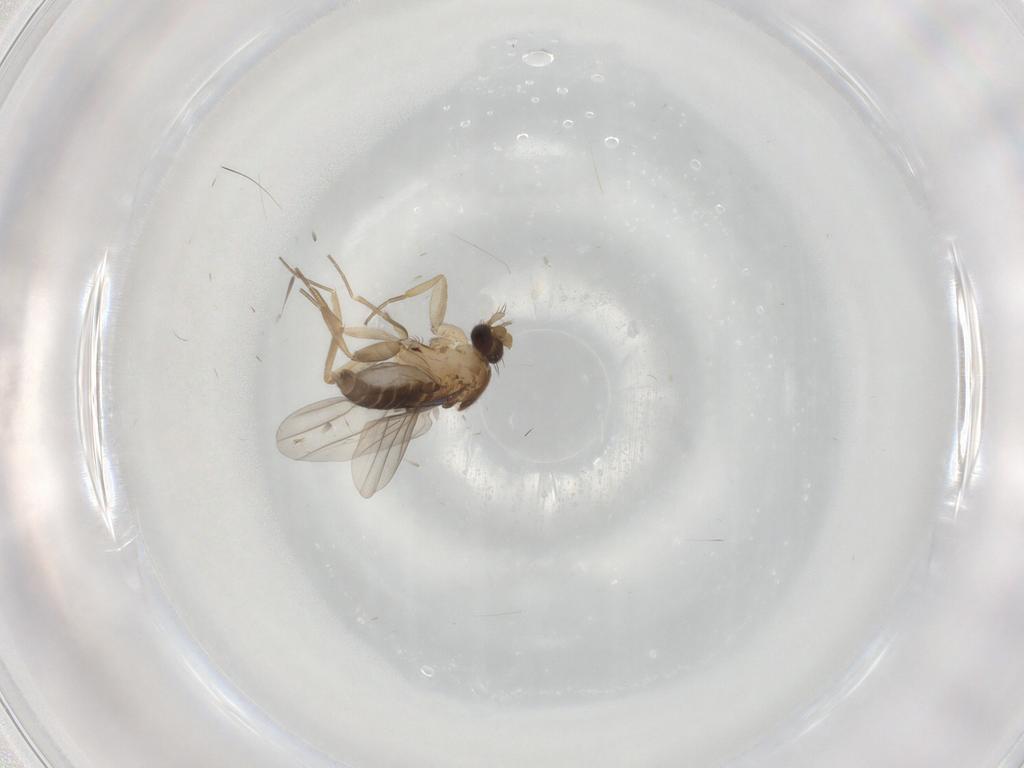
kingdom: Animalia
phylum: Arthropoda
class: Insecta
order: Diptera
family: Phoridae
